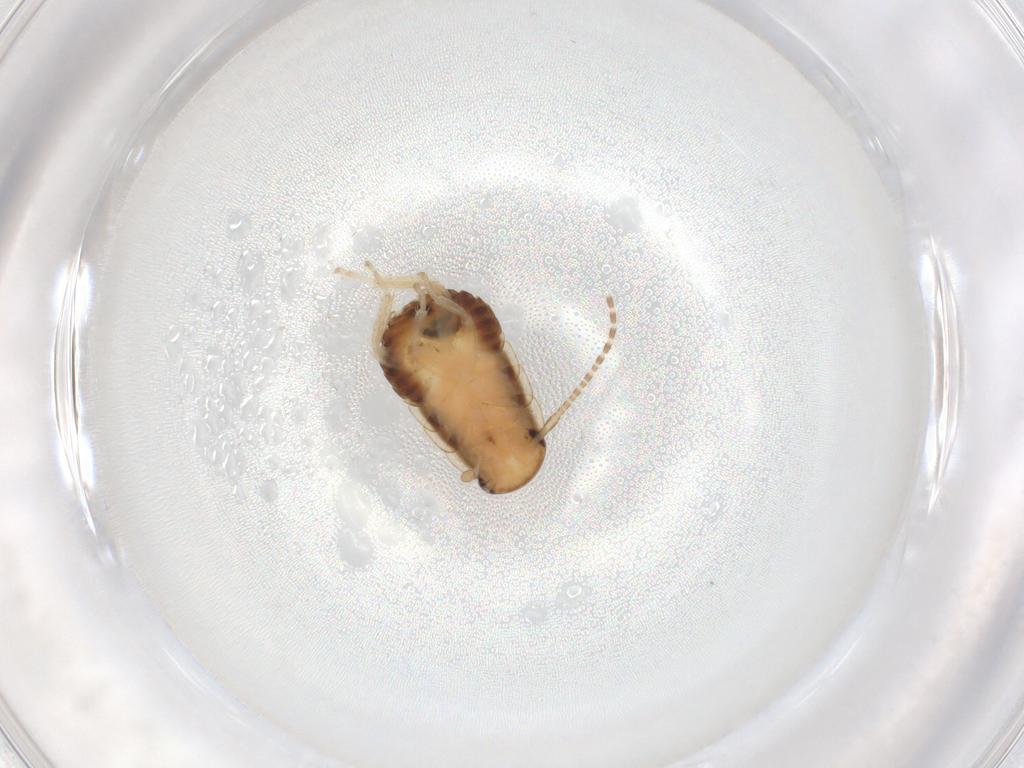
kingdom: Animalia
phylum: Arthropoda
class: Insecta
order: Blattodea
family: Ectobiidae
